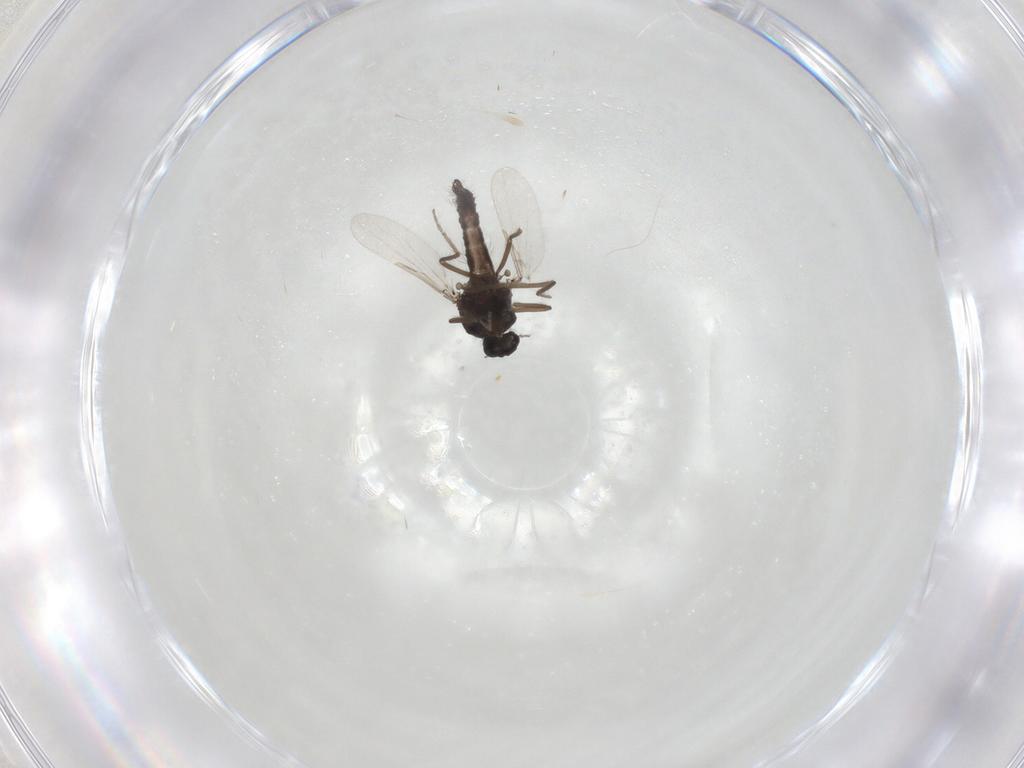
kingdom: Animalia
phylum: Arthropoda
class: Insecta
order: Diptera
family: Ceratopogonidae
